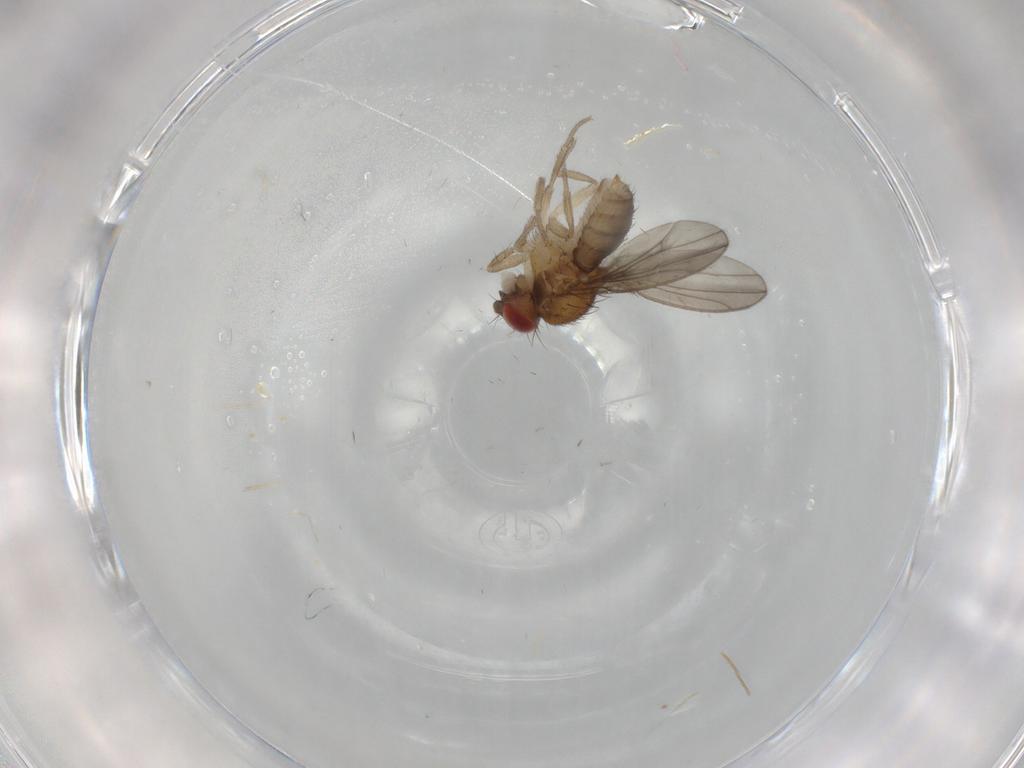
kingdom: Animalia
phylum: Arthropoda
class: Insecta
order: Diptera
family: Drosophilidae
